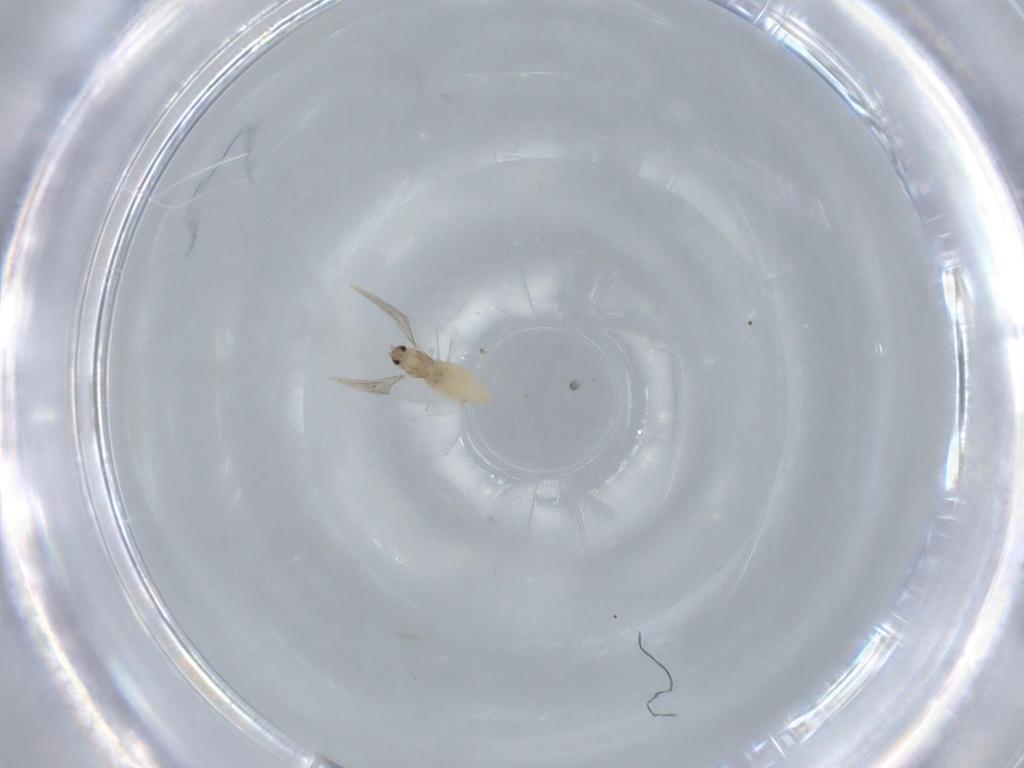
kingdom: Animalia
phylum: Arthropoda
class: Insecta
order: Diptera
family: Cecidomyiidae
